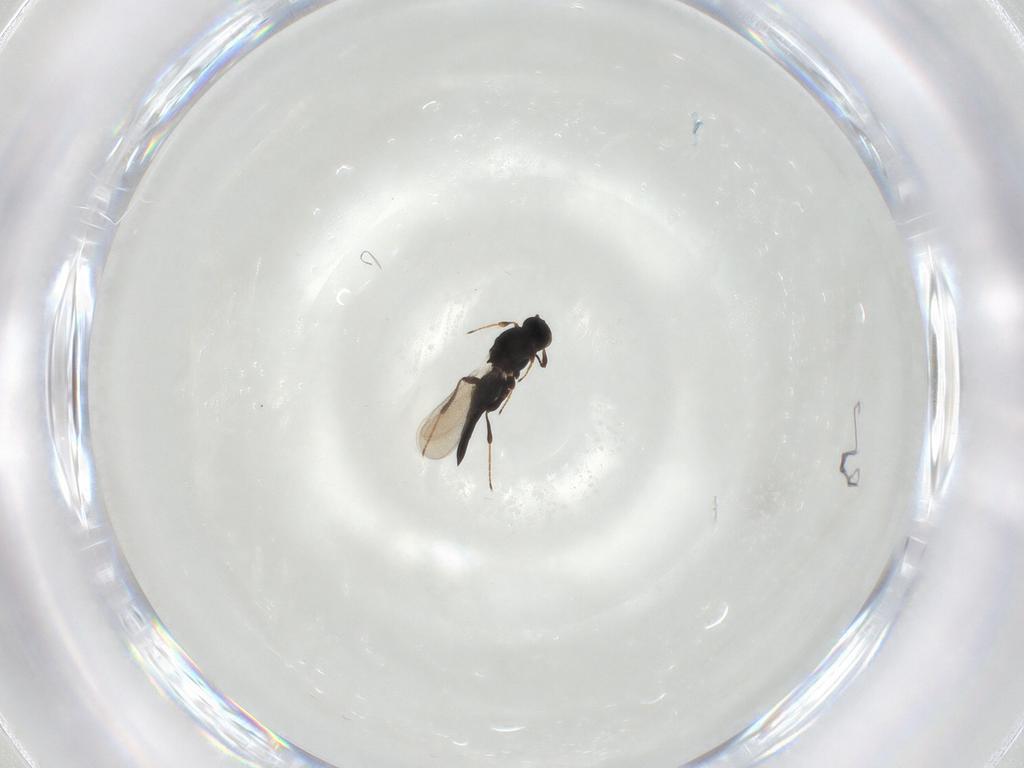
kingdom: Animalia
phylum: Arthropoda
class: Insecta
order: Hymenoptera
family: Platygastridae
